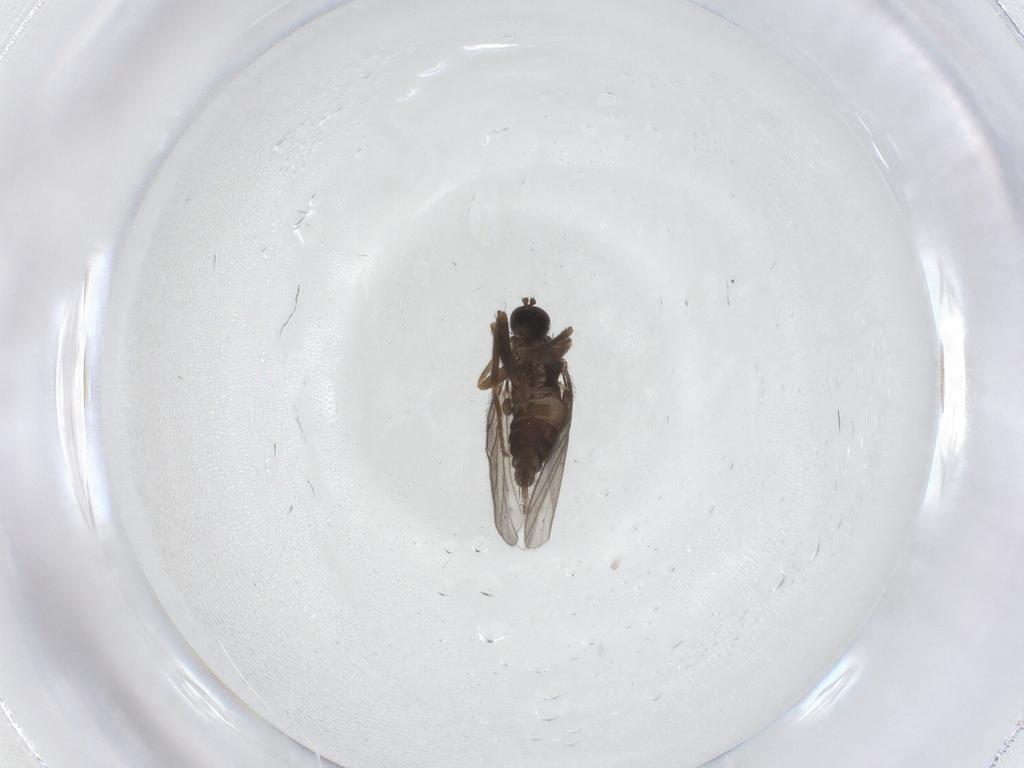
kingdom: Animalia
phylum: Arthropoda
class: Insecta
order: Diptera
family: Hybotidae
